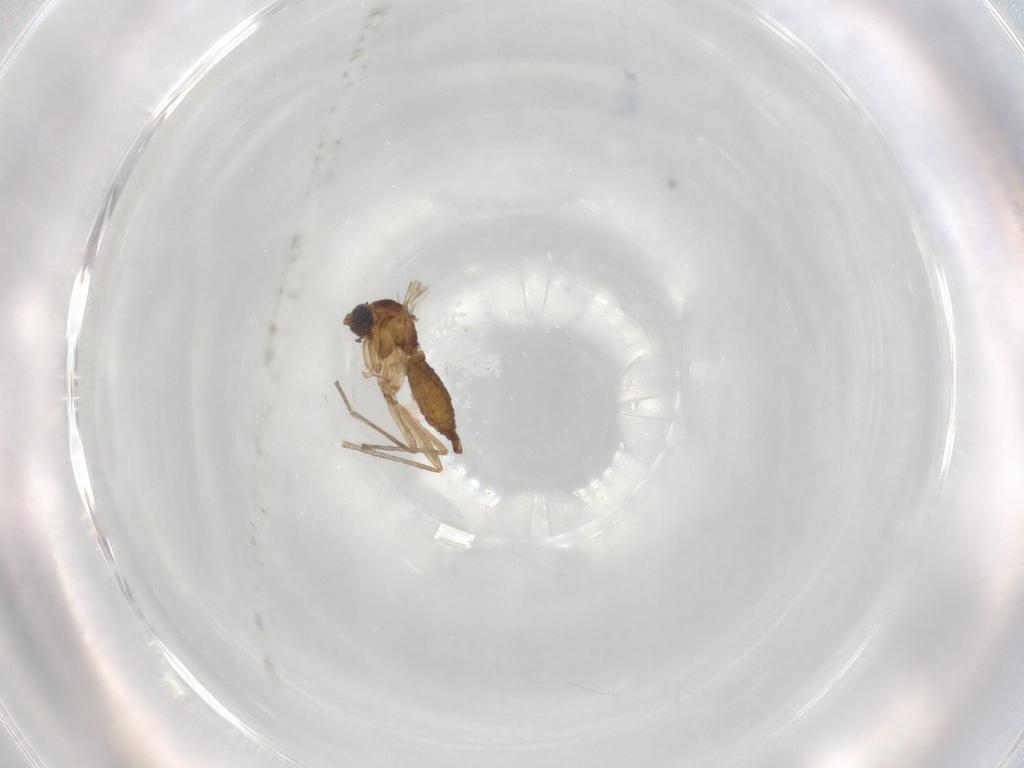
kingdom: Animalia
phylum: Arthropoda
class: Insecta
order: Diptera
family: Sciaridae
